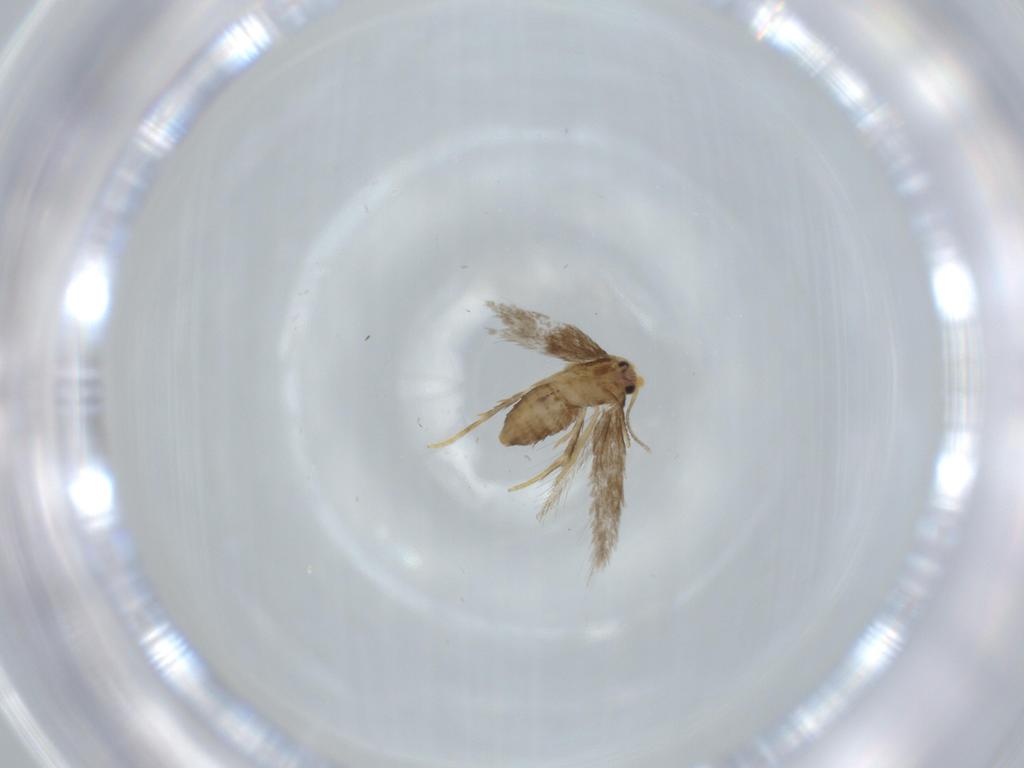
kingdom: Animalia
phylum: Arthropoda
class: Insecta
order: Lepidoptera
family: Nepticulidae
